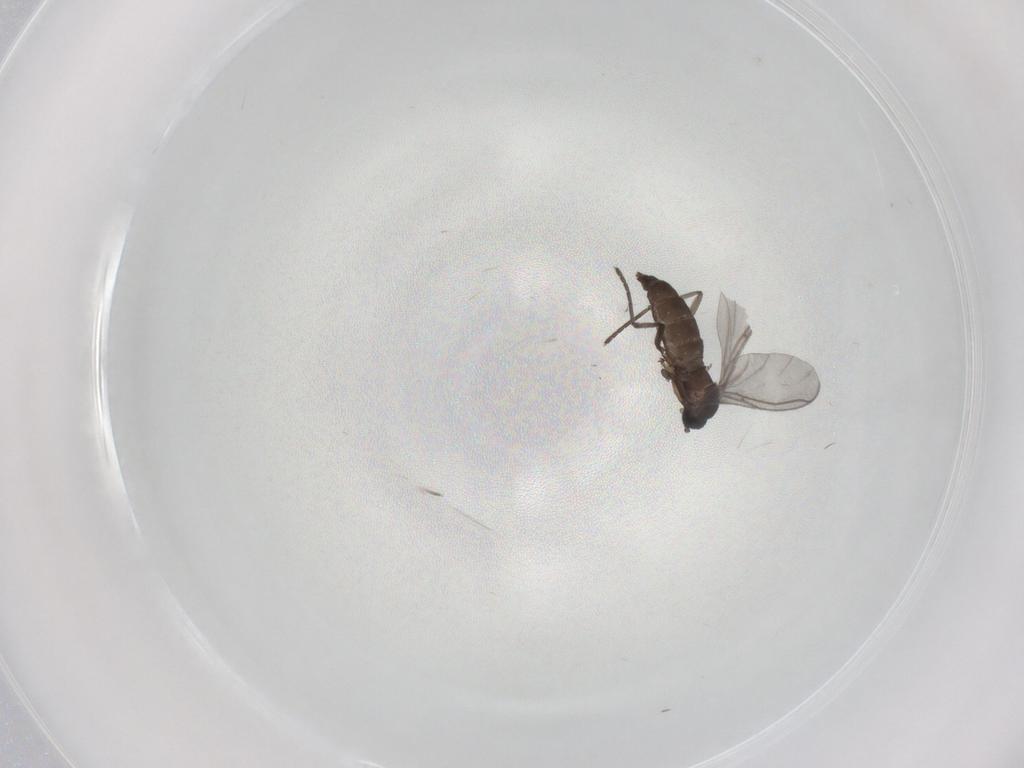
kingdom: Animalia
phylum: Arthropoda
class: Insecta
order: Diptera
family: Sciaridae
